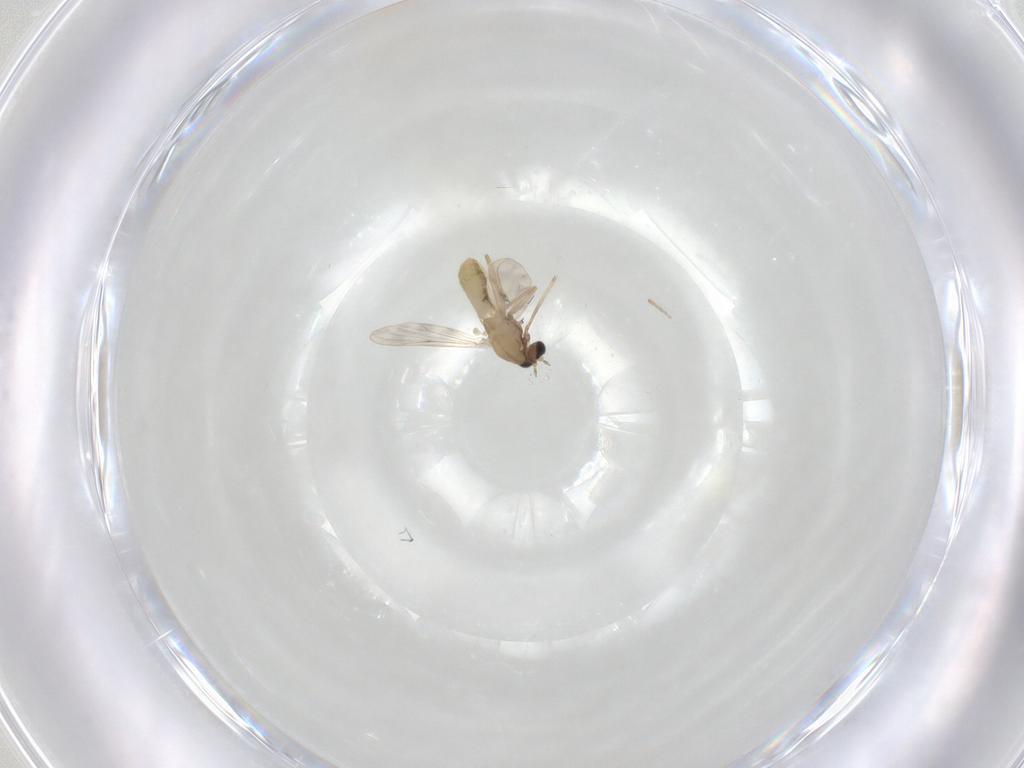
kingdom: Animalia
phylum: Arthropoda
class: Insecta
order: Diptera
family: Chironomidae
